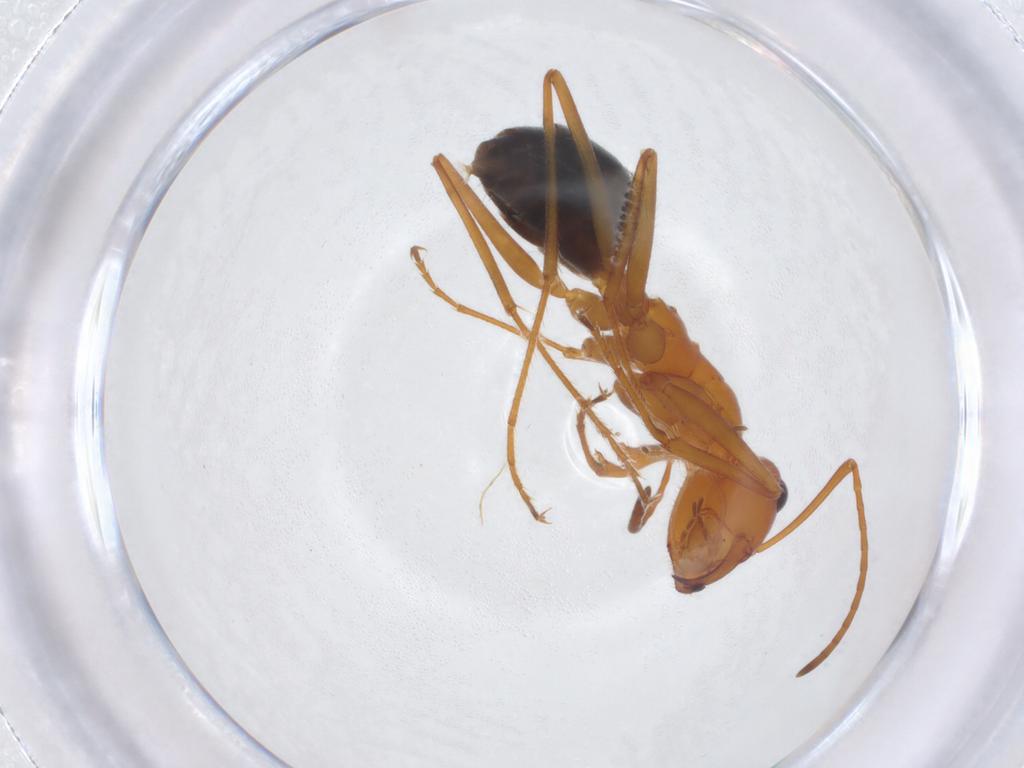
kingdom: Animalia
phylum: Arthropoda
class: Insecta
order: Hymenoptera
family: Formicidae
